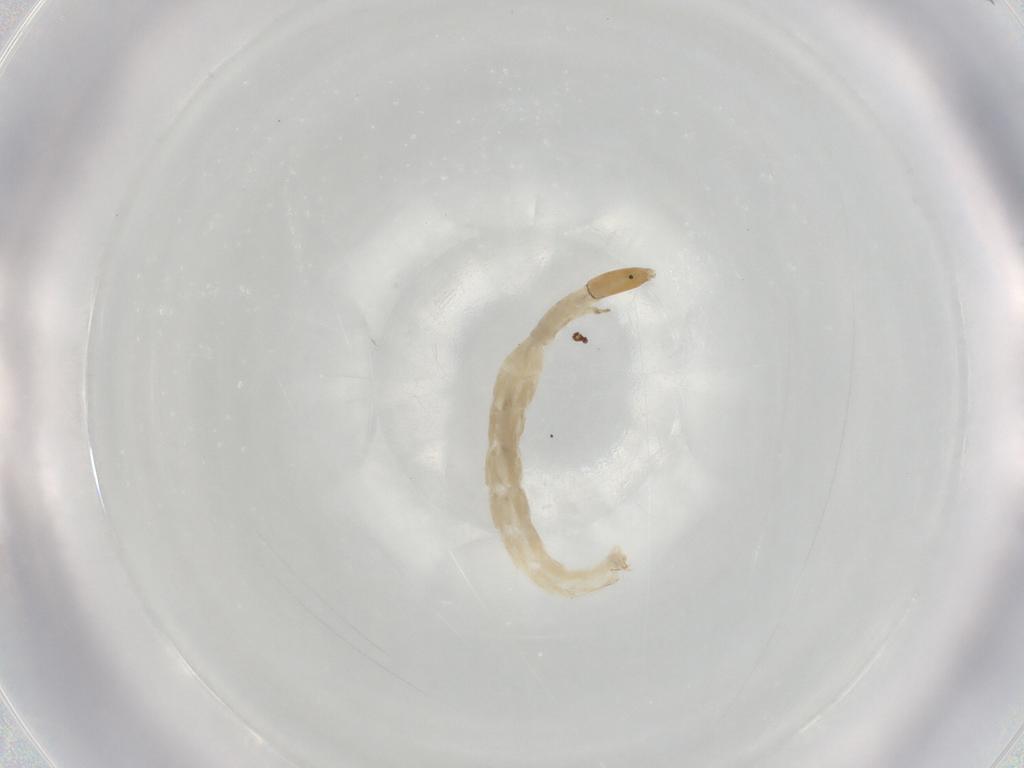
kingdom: Animalia
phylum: Arthropoda
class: Insecta
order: Diptera
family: Chironomidae
